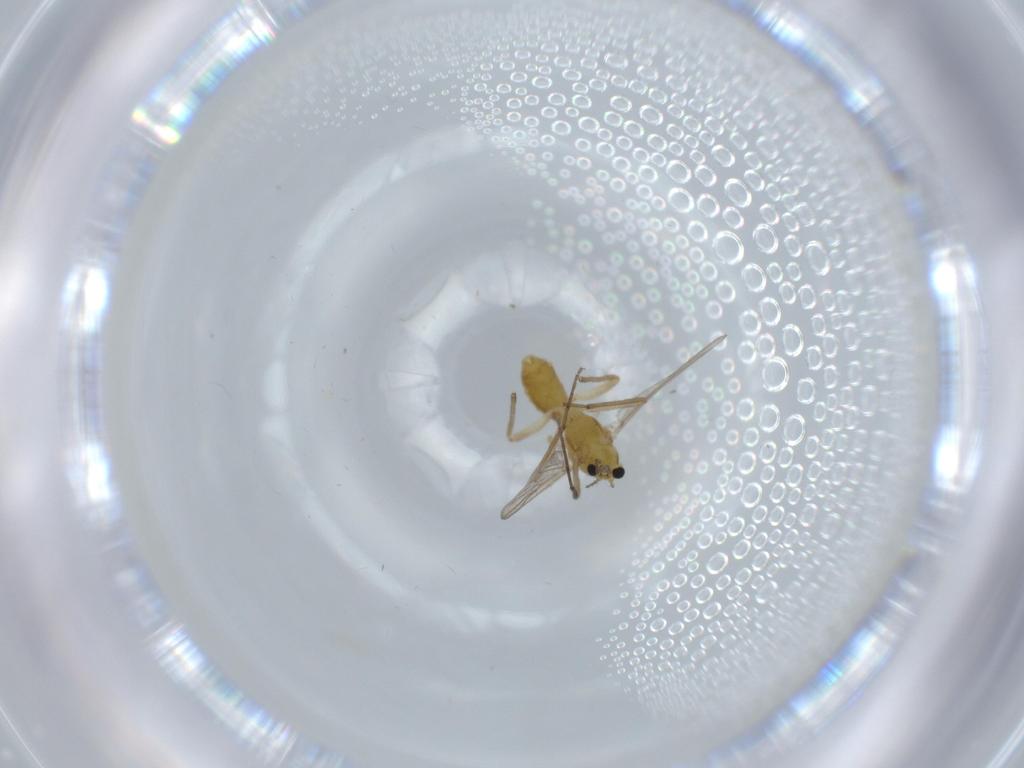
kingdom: Animalia
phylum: Arthropoda
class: Insecta
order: Diptera
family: Chironomidae
